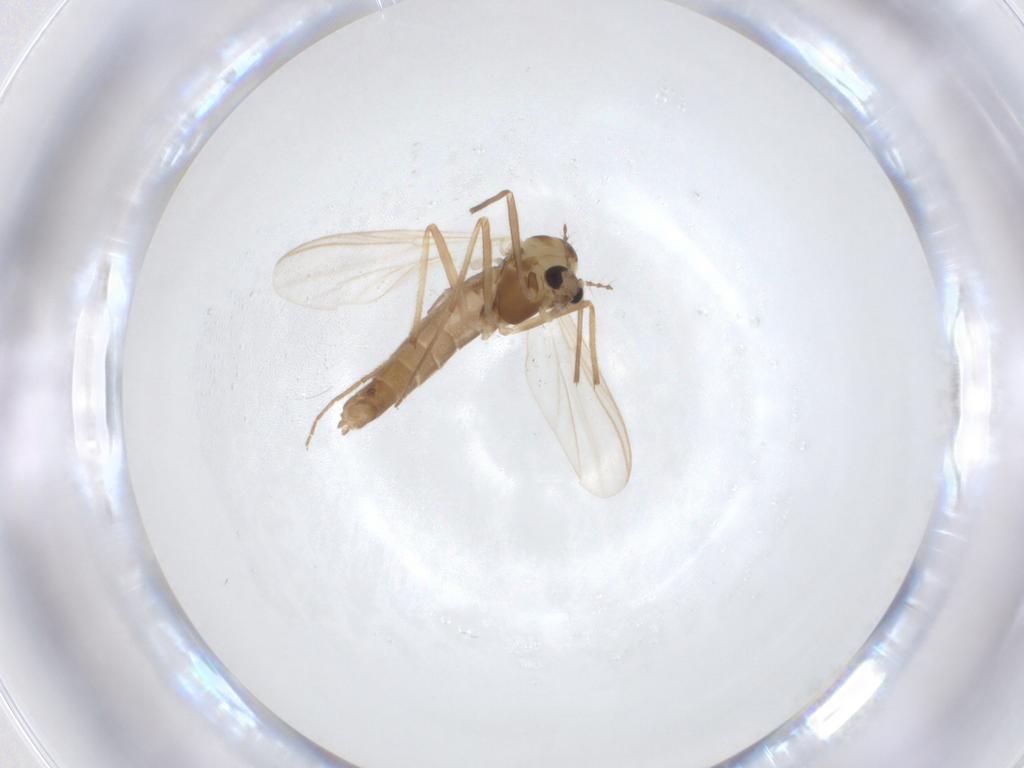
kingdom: Animalia
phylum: Arthropoda
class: Insecta
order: Diptera
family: Chironomidae
